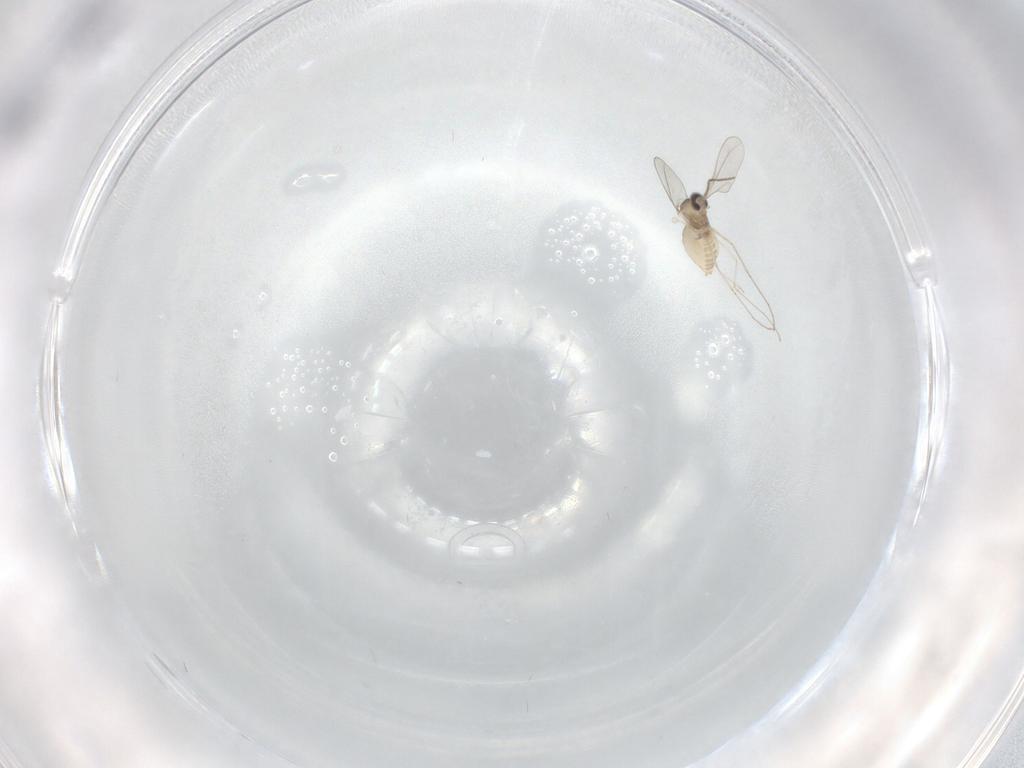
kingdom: Animalia
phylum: Arthropoda
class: Insecta
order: Diptera
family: Cecidomyiidae
